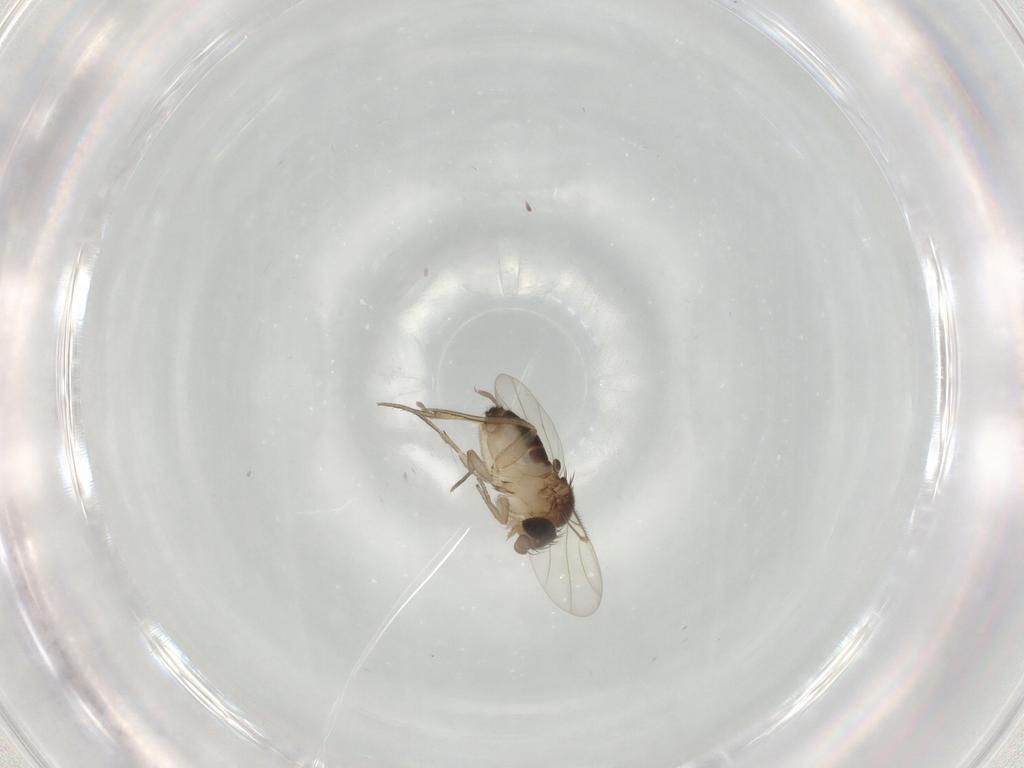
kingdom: Animalia
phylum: Arthropoda
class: Insecta
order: Diptera
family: Phoridae
